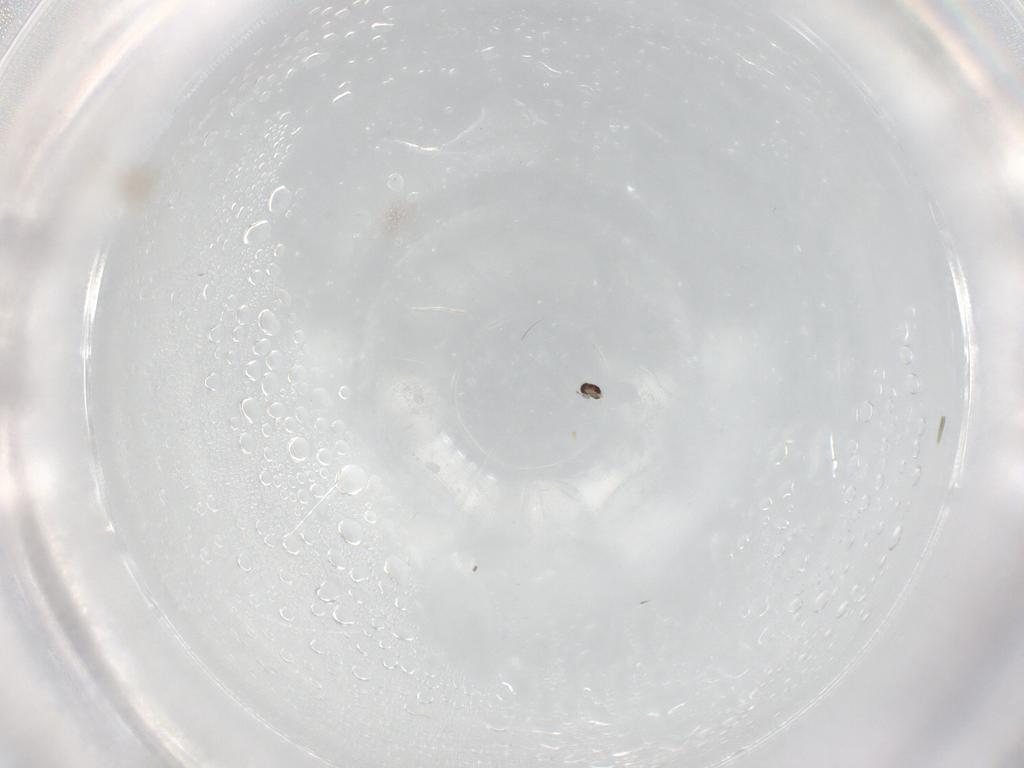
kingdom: Animalia
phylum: Arthropoda
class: Insecta
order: Diptera
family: Cecidomyiidae
